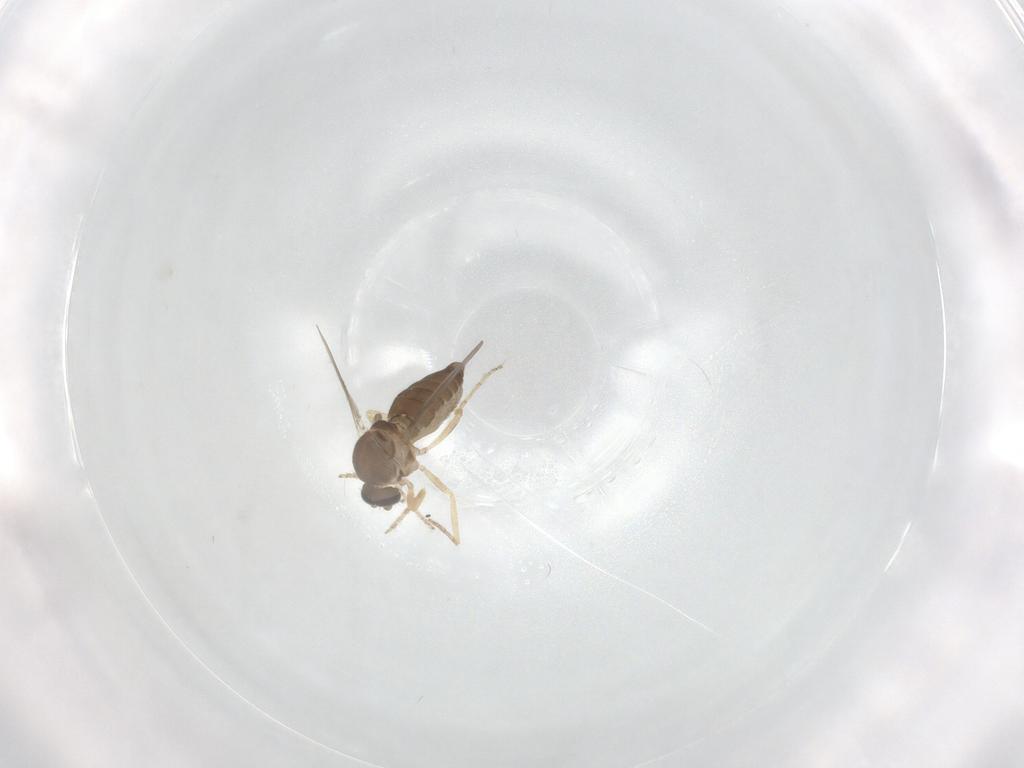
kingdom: Animalia
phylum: Arthropoda
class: Insecta
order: Diptera
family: Ceratopogonidae
